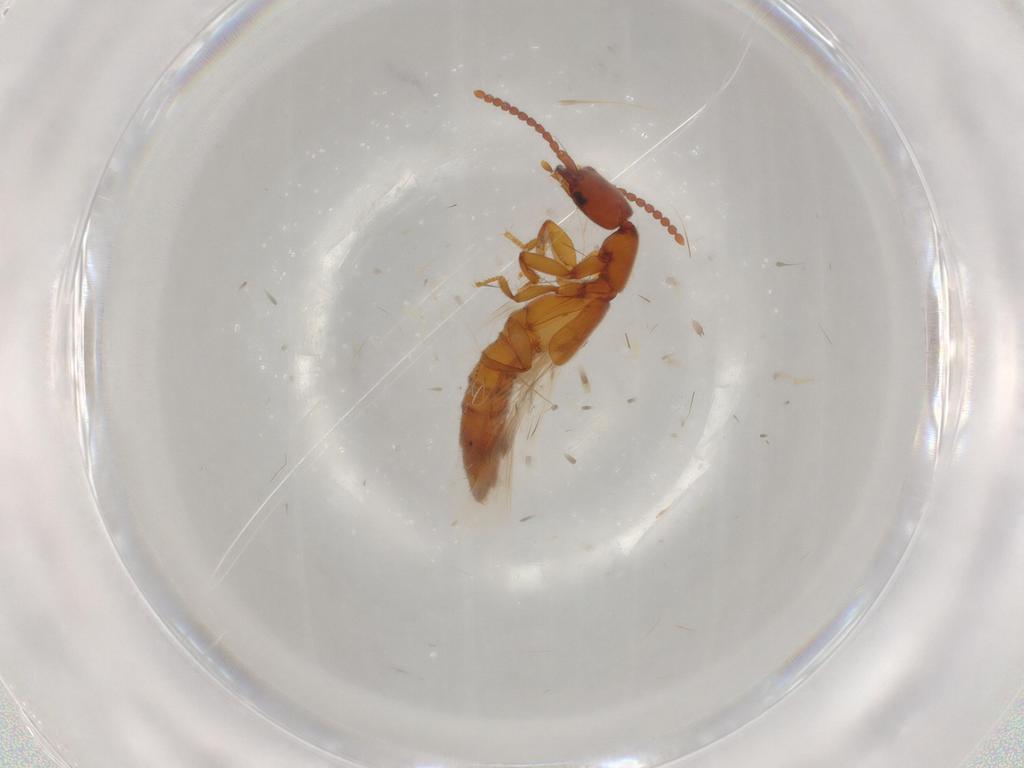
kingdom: Animalia
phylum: Arthropoda
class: Insecta
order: Coleoptera
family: Staphylinidae
